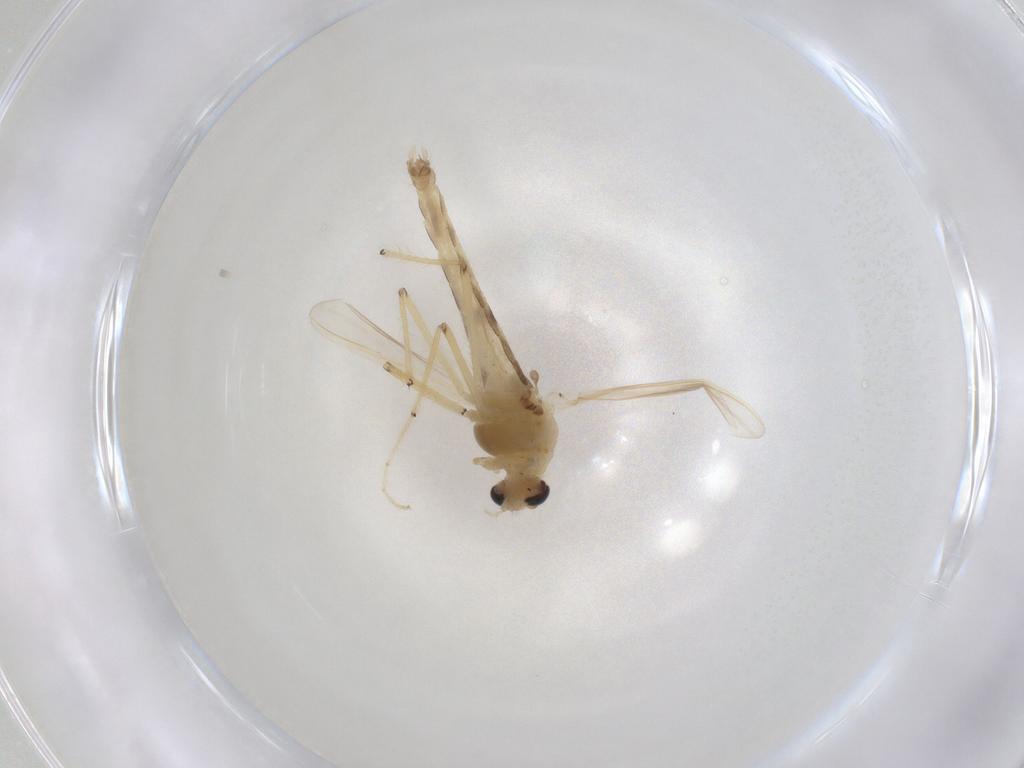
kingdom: Animalia
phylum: Arthropoda
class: Insecta
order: Diptera
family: Chironomidae
